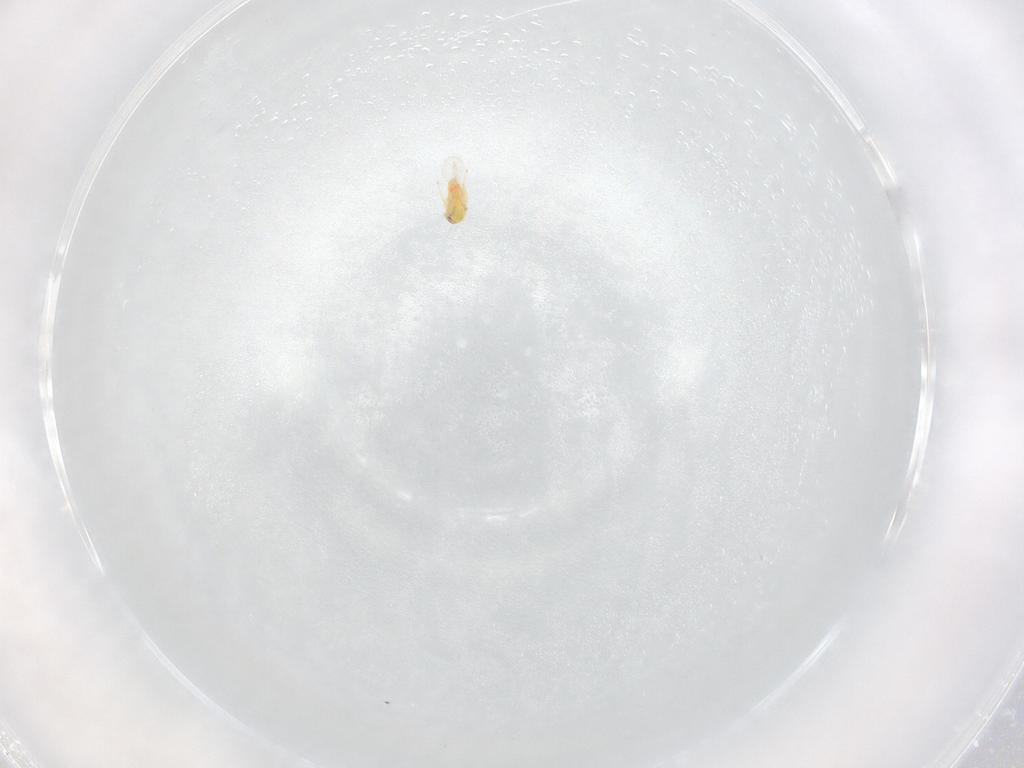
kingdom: Animalia
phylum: Arthropoda
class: Insecta
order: Hymenoptera
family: Trichogrammatidae
